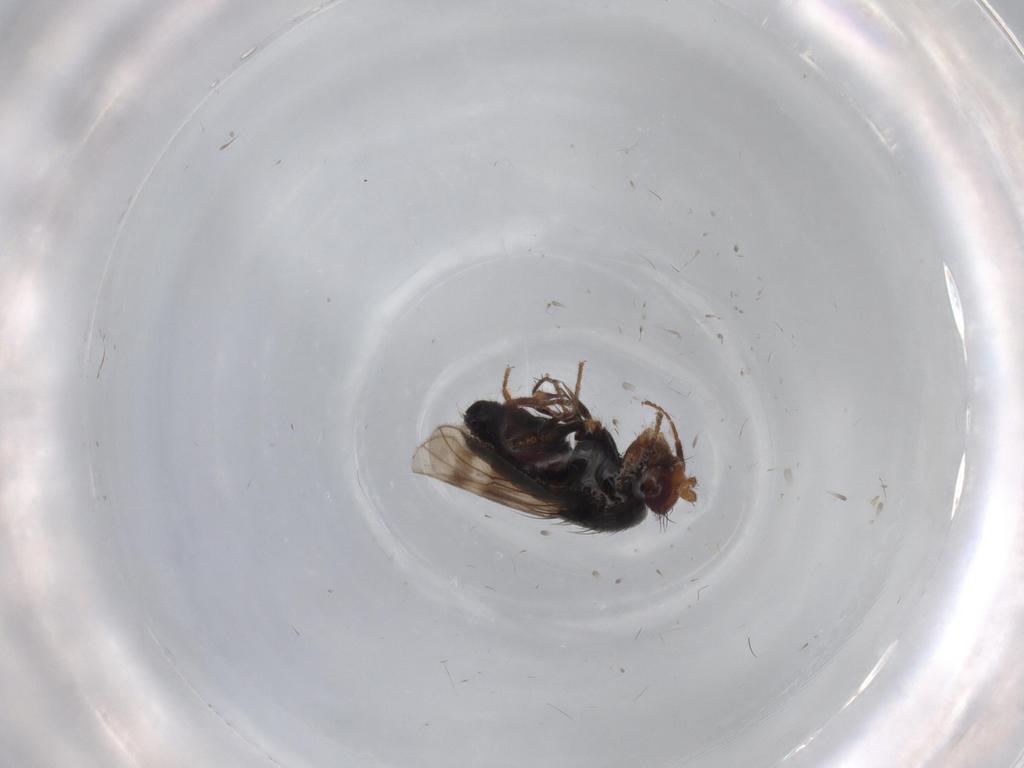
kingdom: Animalia
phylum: Arthropoda
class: Insecta
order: Diptera
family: Sphaeroceridae
